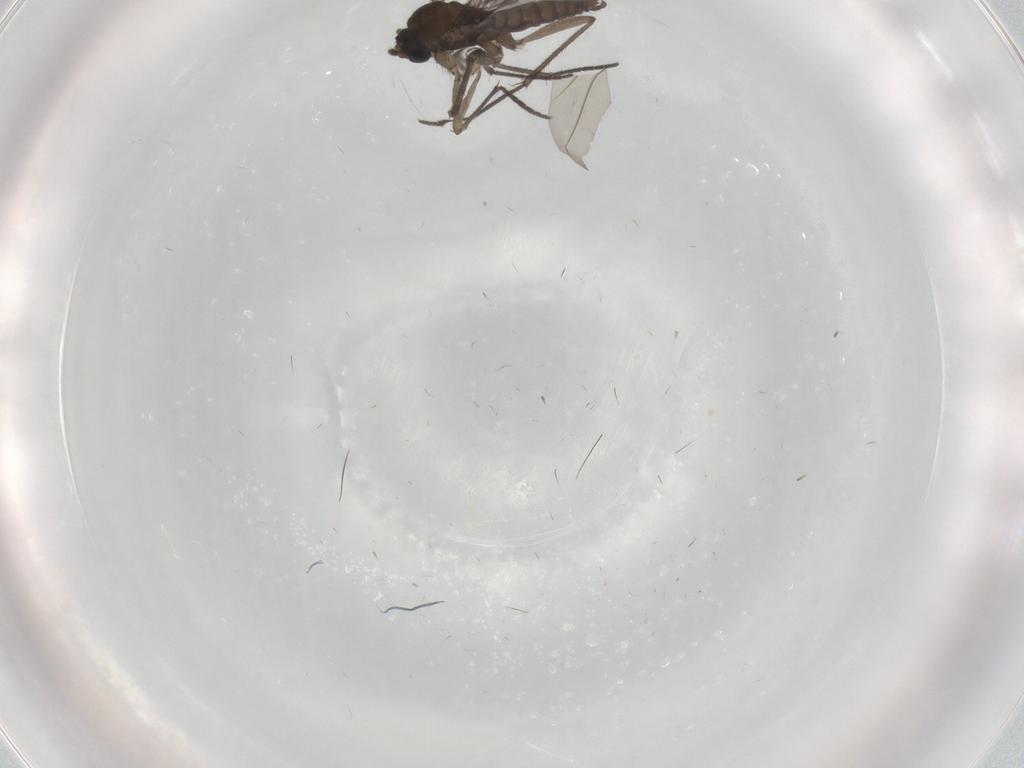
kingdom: Animalia
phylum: Arthropoda
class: Insecta
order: Diptera
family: Sciaridae
